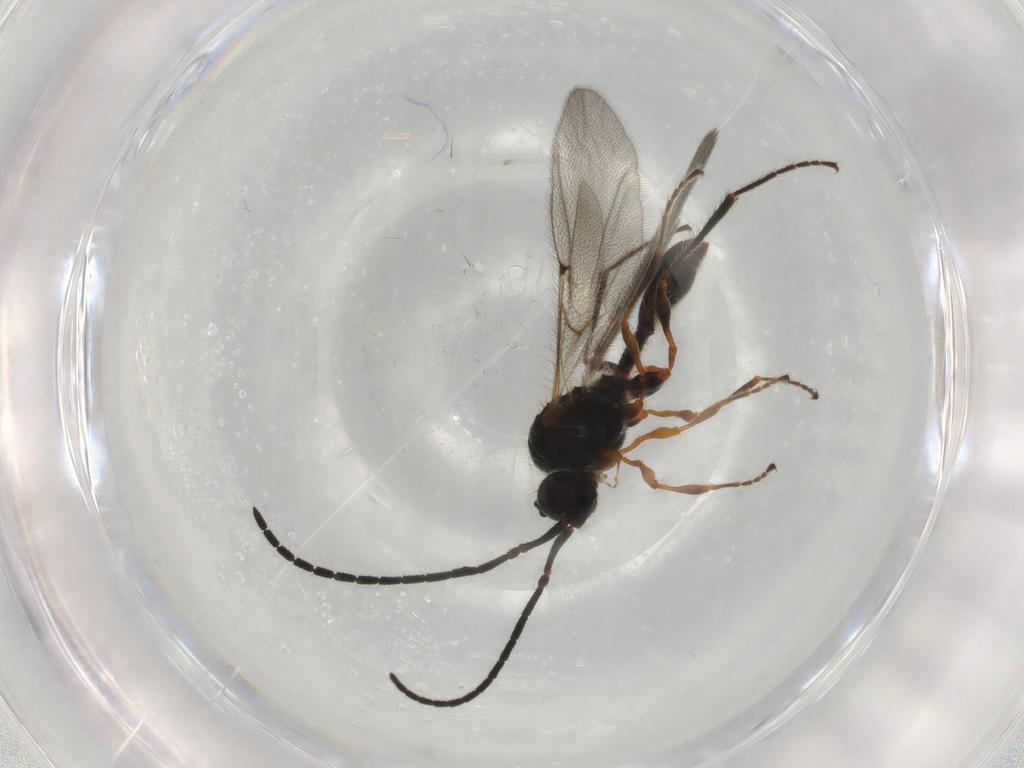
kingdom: Animalia
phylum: Arthropoda
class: Insecta
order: Hymenoptera
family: Diapriidae
